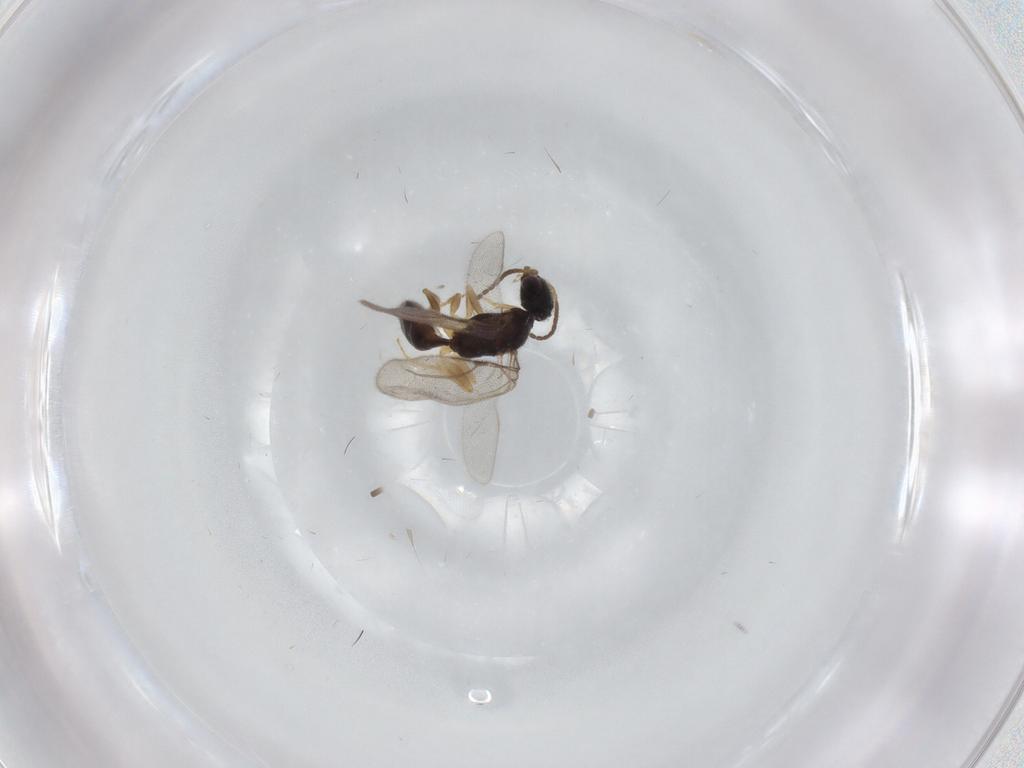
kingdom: Animalia
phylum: Arthropoda
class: Insecta
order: Hymenoptera
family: Bethylidae
